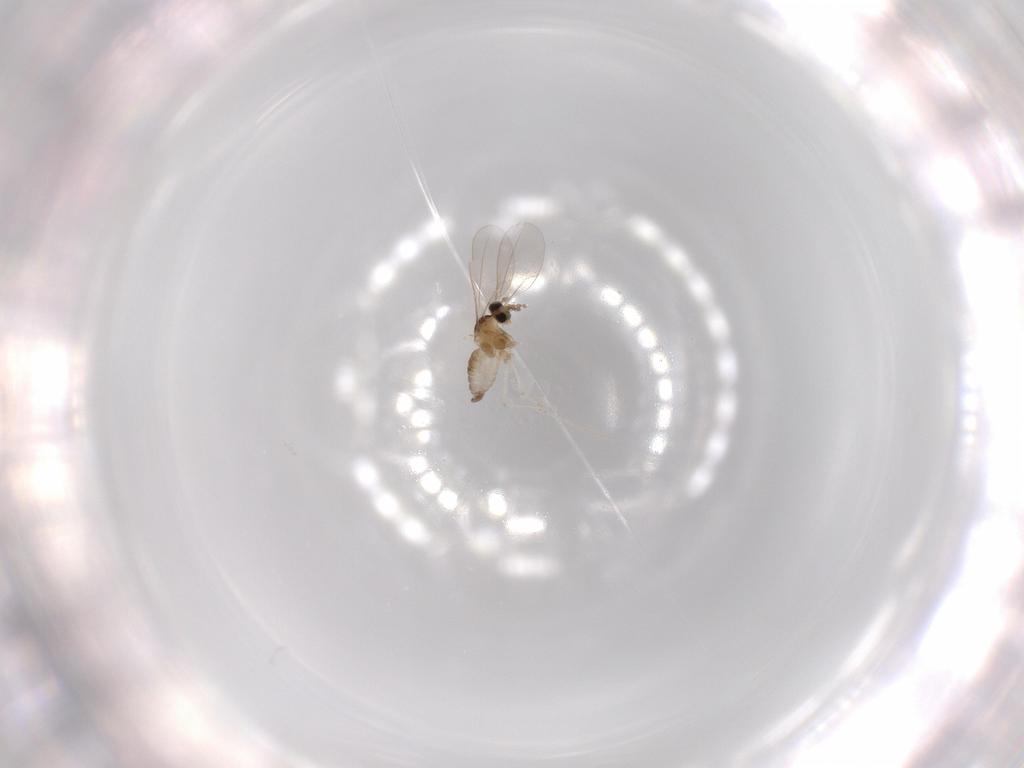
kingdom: Animalia
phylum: Arthropoda
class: Insecta
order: Diptera
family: Cecidomyiidae
